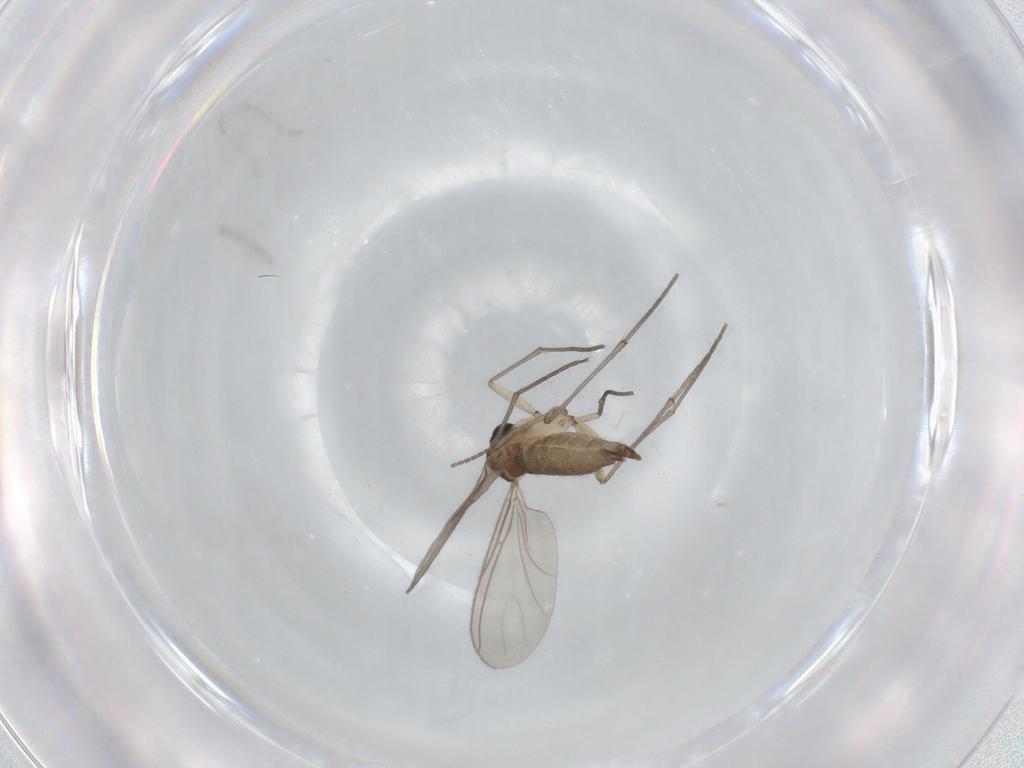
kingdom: Animalia
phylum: Arthropoda
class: Insecta
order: Diptera
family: Sciaridae
